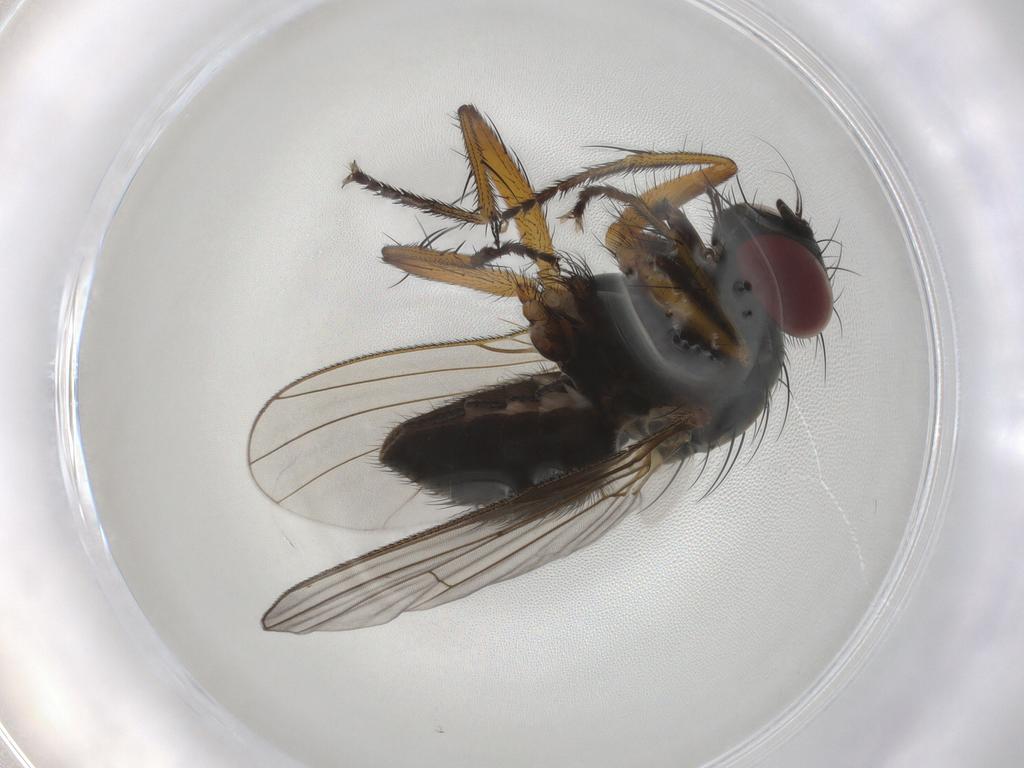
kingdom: Animalia
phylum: Arthropoda
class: Insecta
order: Diptera
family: Muscidae
